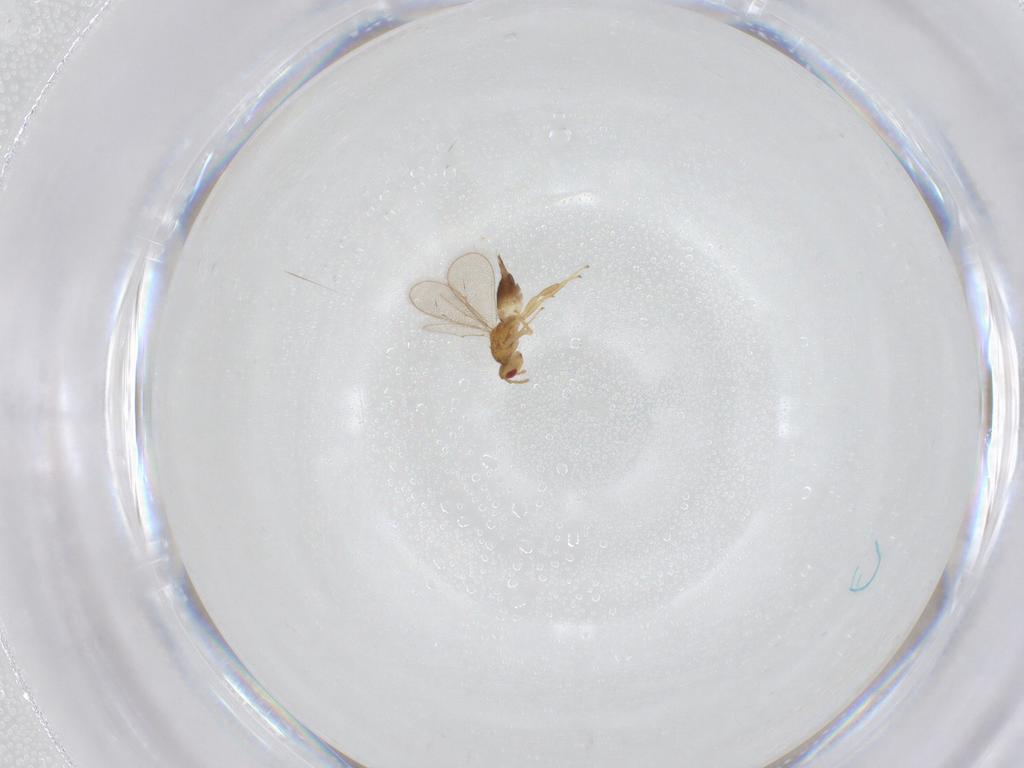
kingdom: Animalia
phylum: Arthropoda
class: Insecta
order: Hymenoptera
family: Eulophidae
